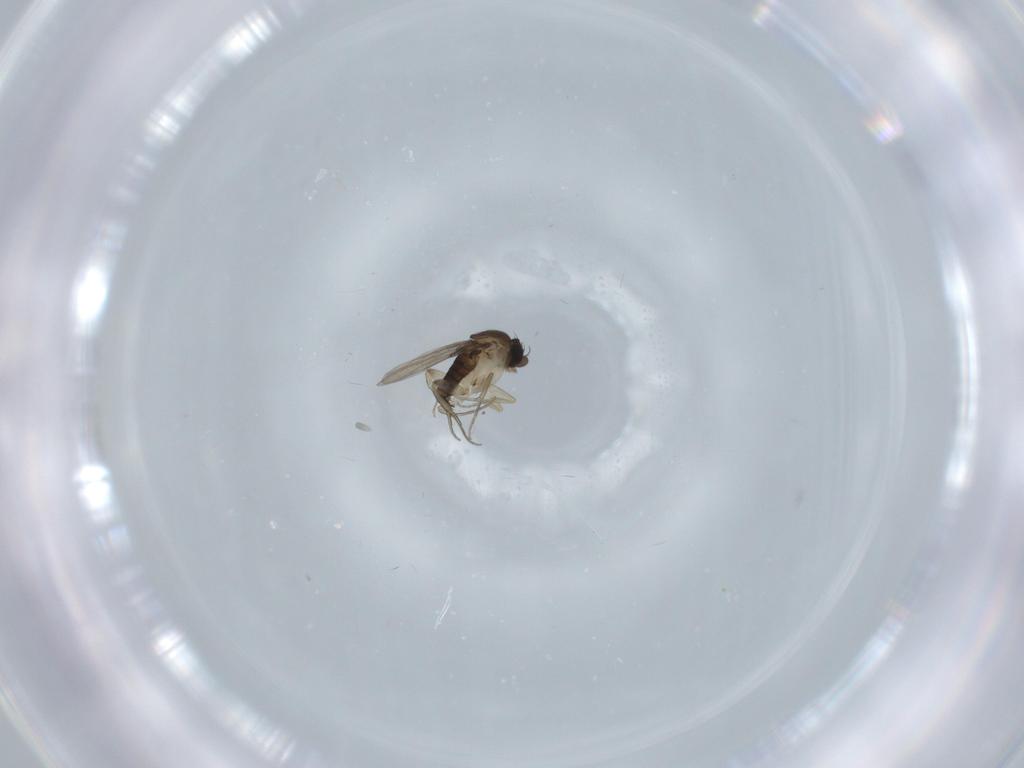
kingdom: Animalia
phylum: Arthropoda
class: Insecta
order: Diptera
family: Phoridae
